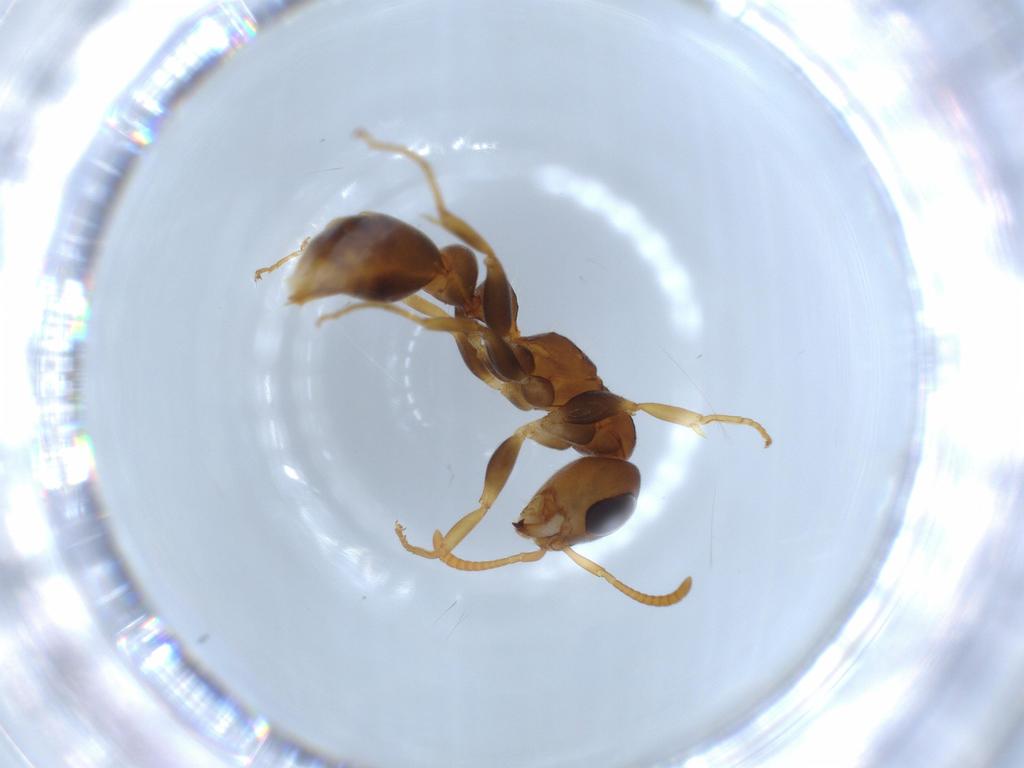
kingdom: Animalia
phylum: Arthropoda
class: Insecta
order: Hymenoptera
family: Formicidae
